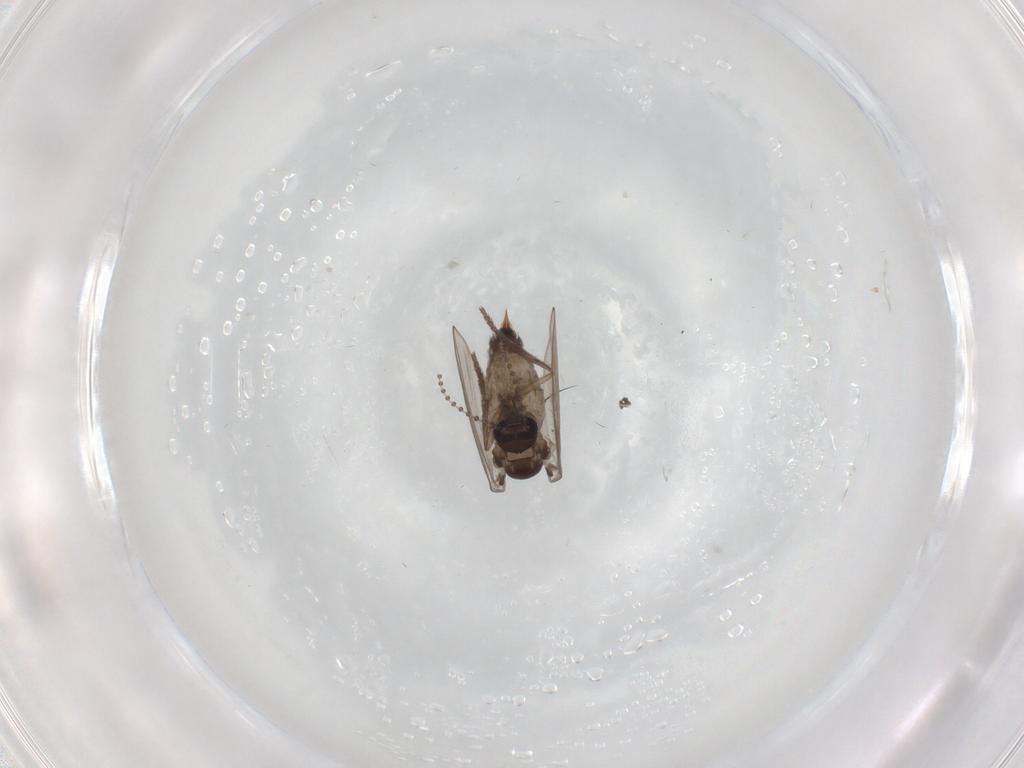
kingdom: Animalia
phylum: Arthropoda
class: Insecta
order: Diptera
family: Psychodidae
